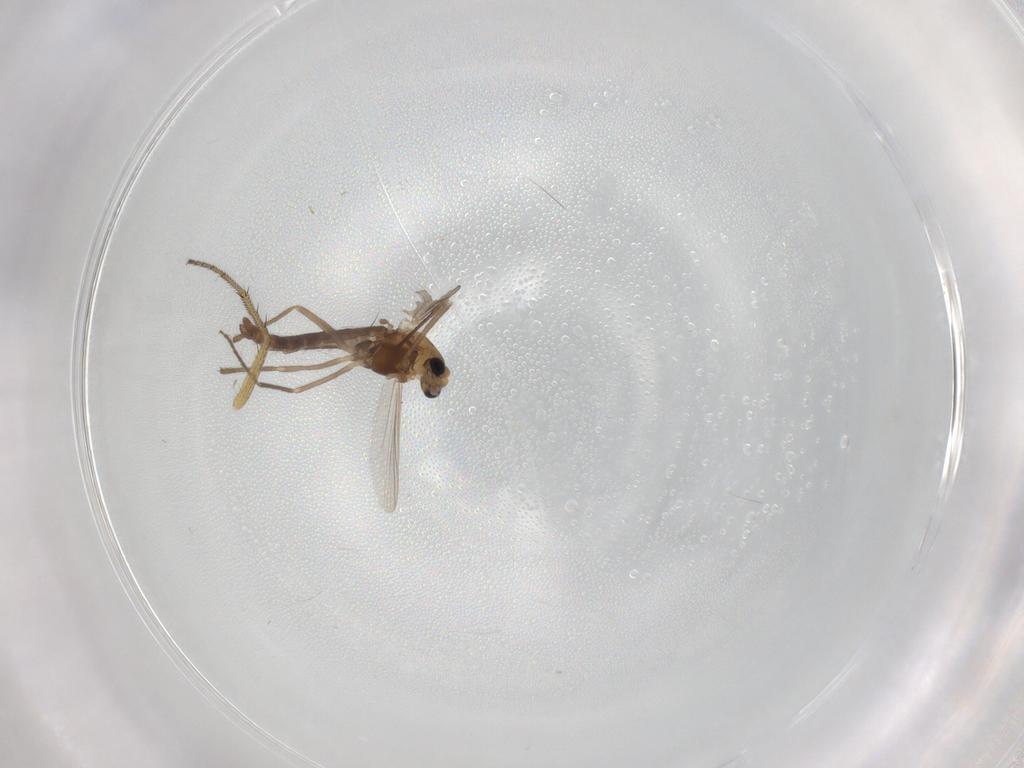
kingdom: Animalia
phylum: Arthropoda
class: Insecta
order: Diptera
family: Chironomidae
